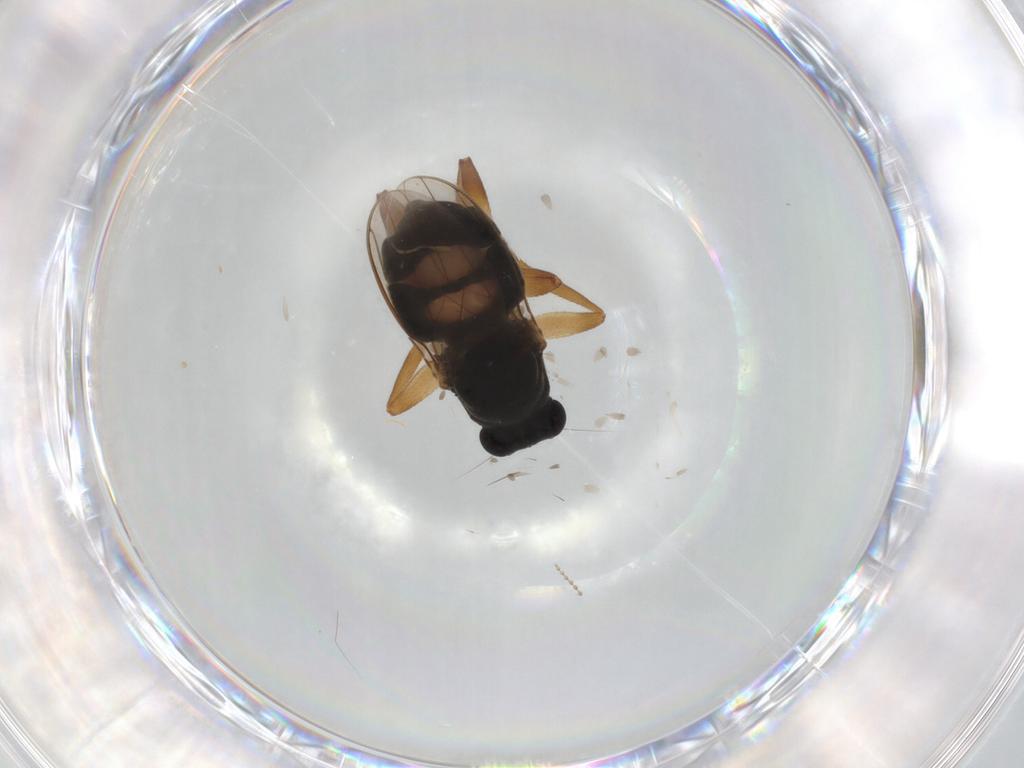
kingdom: Animalia
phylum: Arthropoda
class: Insecta
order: Diptera
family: Sphaeroceridae
